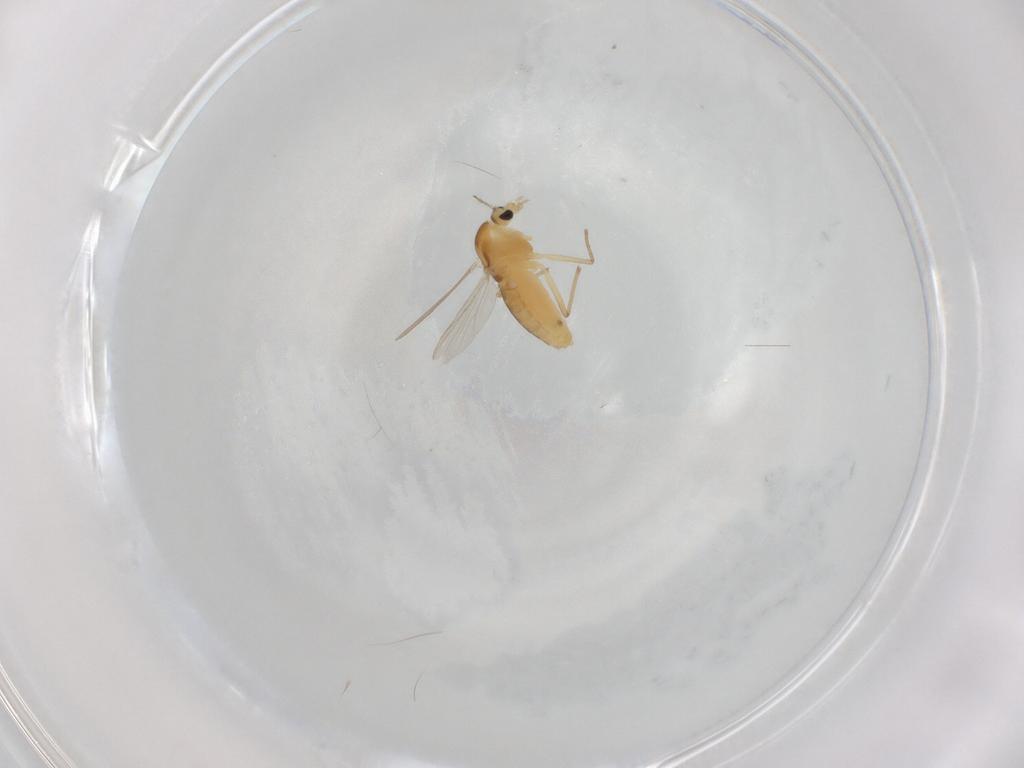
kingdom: Animalia
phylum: Arthropoda
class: Insecta
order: Diptera
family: Chironomidae
